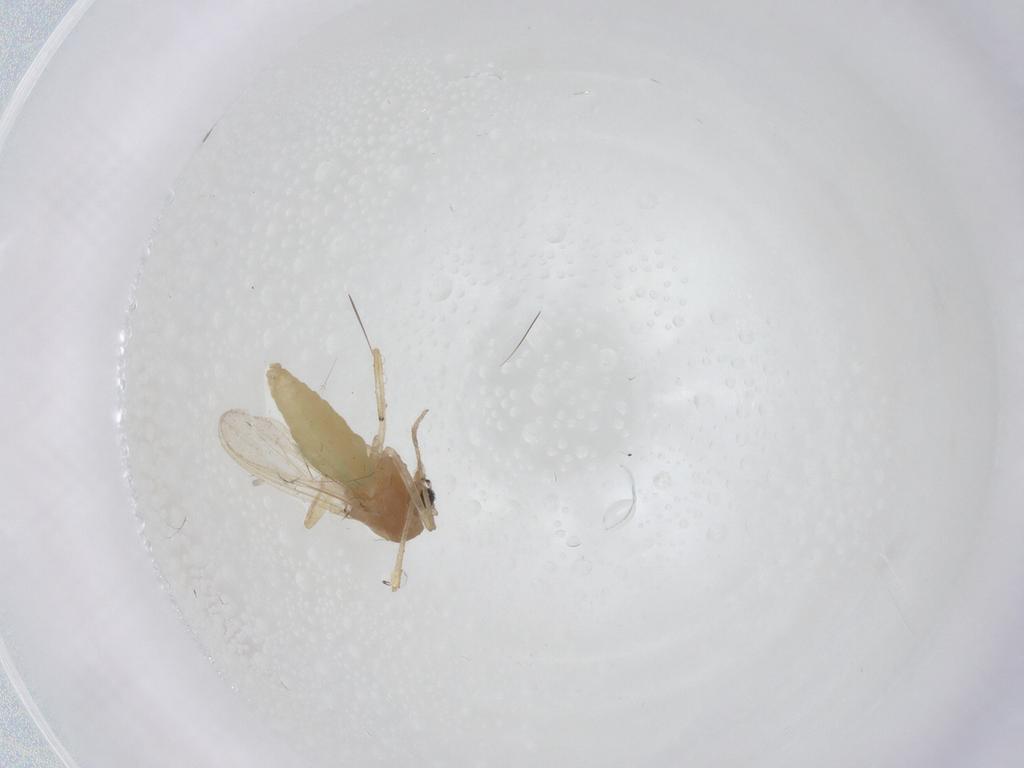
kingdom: Animalia
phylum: Arthropoda
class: Insecta
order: Diptera
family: Chironomidae
